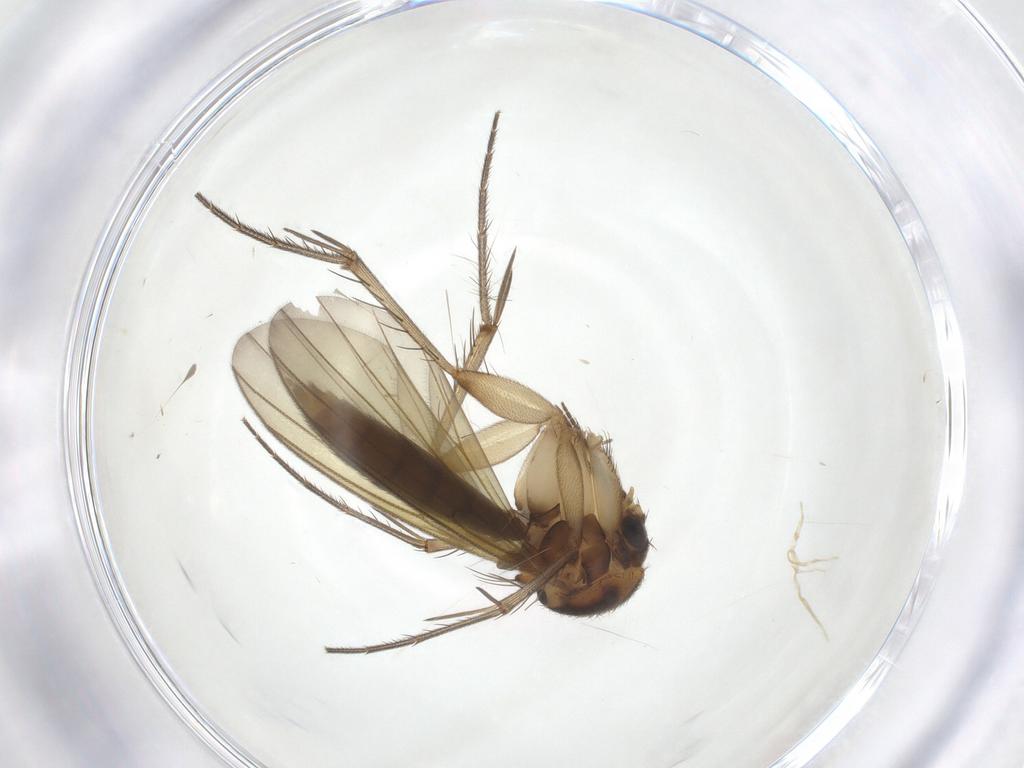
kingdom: Animalia
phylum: Arthropoda
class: Insecta
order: Diptera
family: Mycetophilidae
